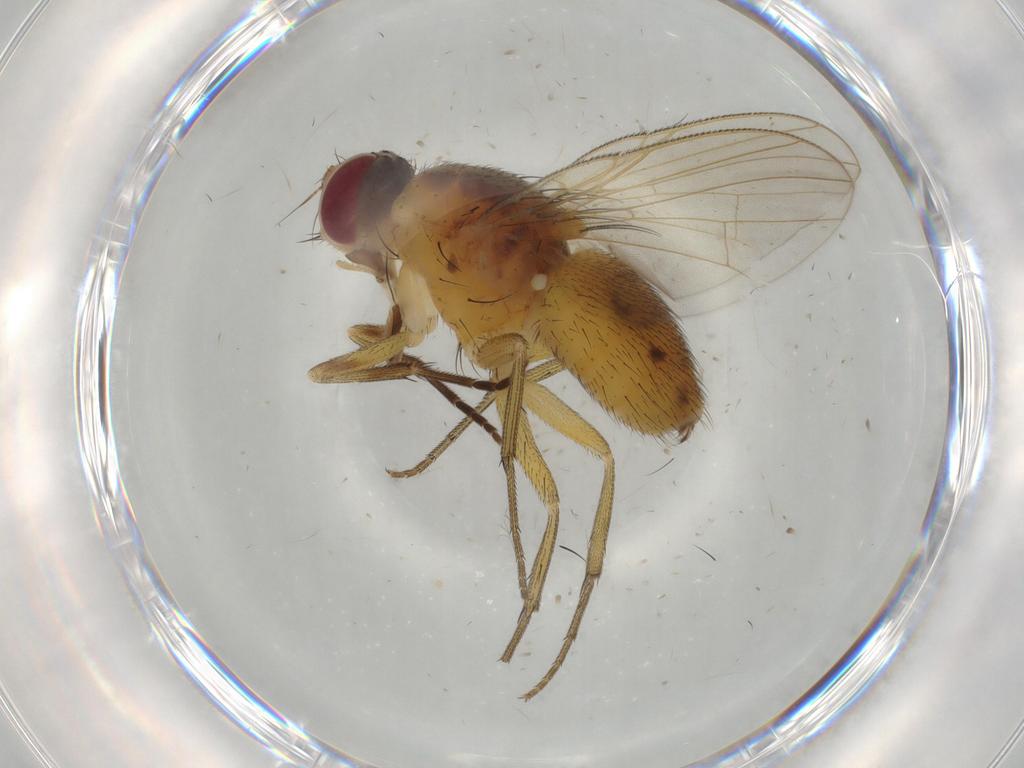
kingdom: Animalia
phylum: Arthropoda
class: Insecta
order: Diptera
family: Muscidae
